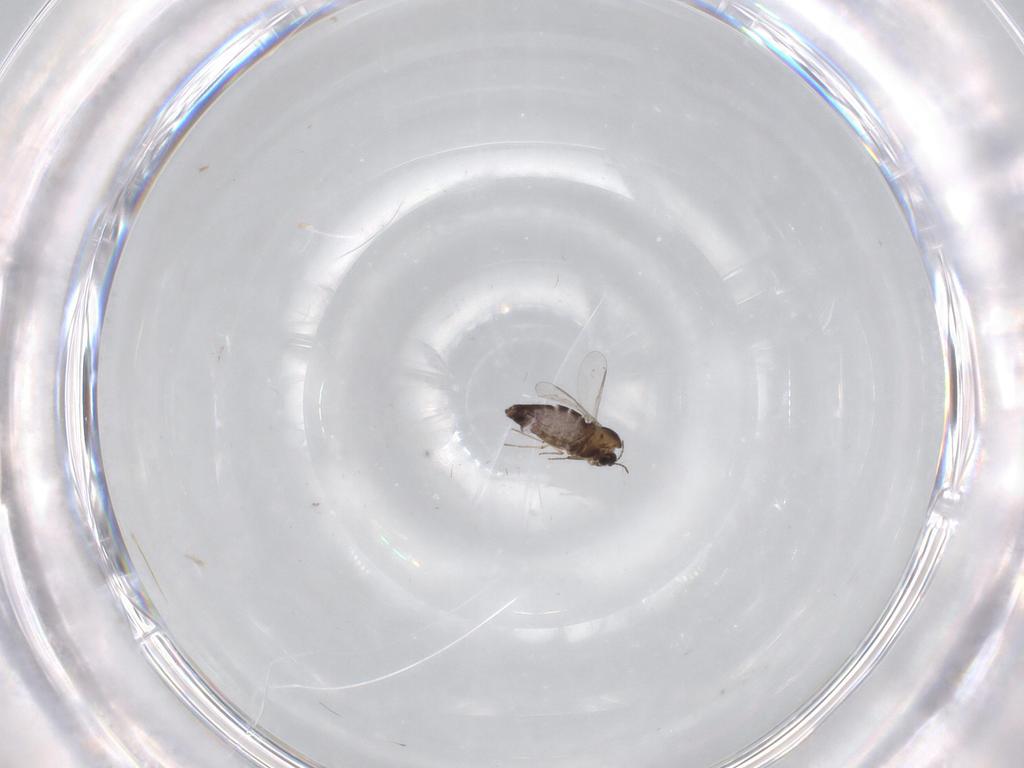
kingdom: Animalia
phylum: Arthropoda
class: Insecta
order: Diptera
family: Chironomidae
